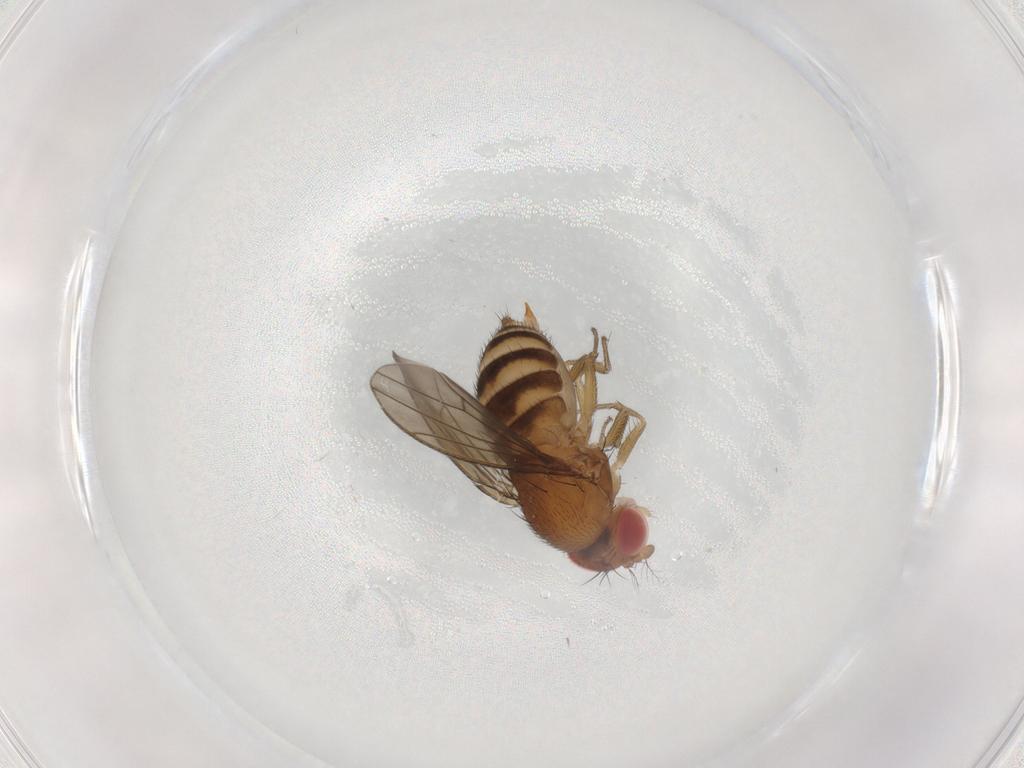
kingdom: Animalia
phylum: Arthropoda
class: Insecta
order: Diptera
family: Drosophilidae
